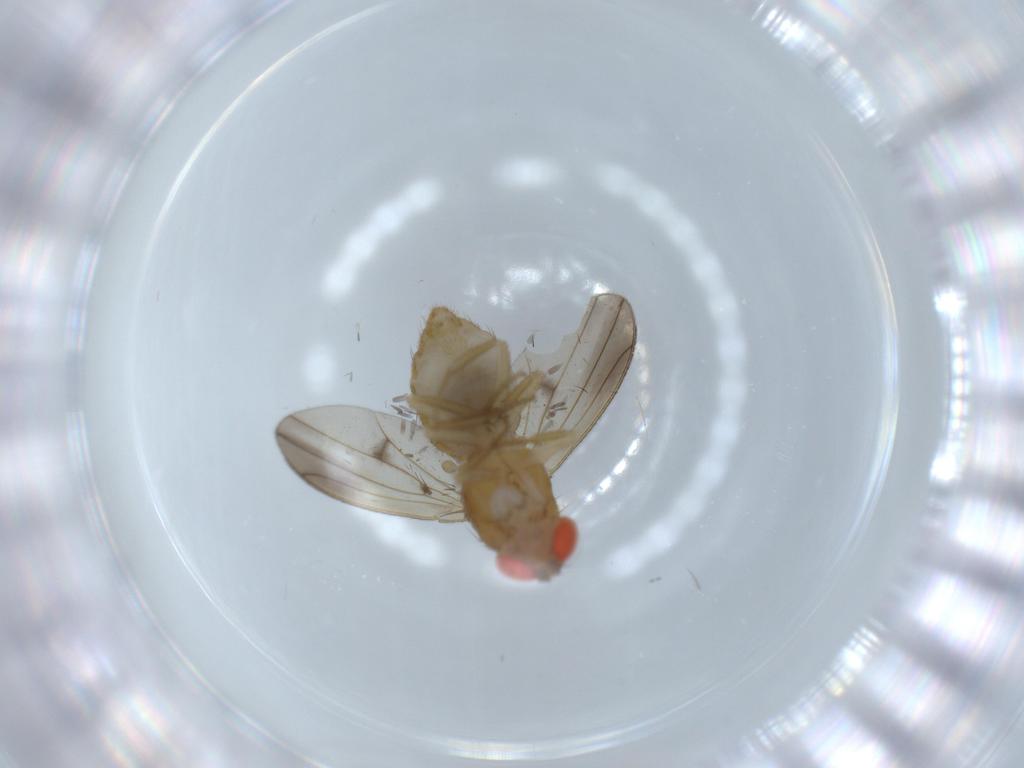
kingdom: Animalia
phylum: Arthropoda
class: Insecta
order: Diptera
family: Drosophilidae
